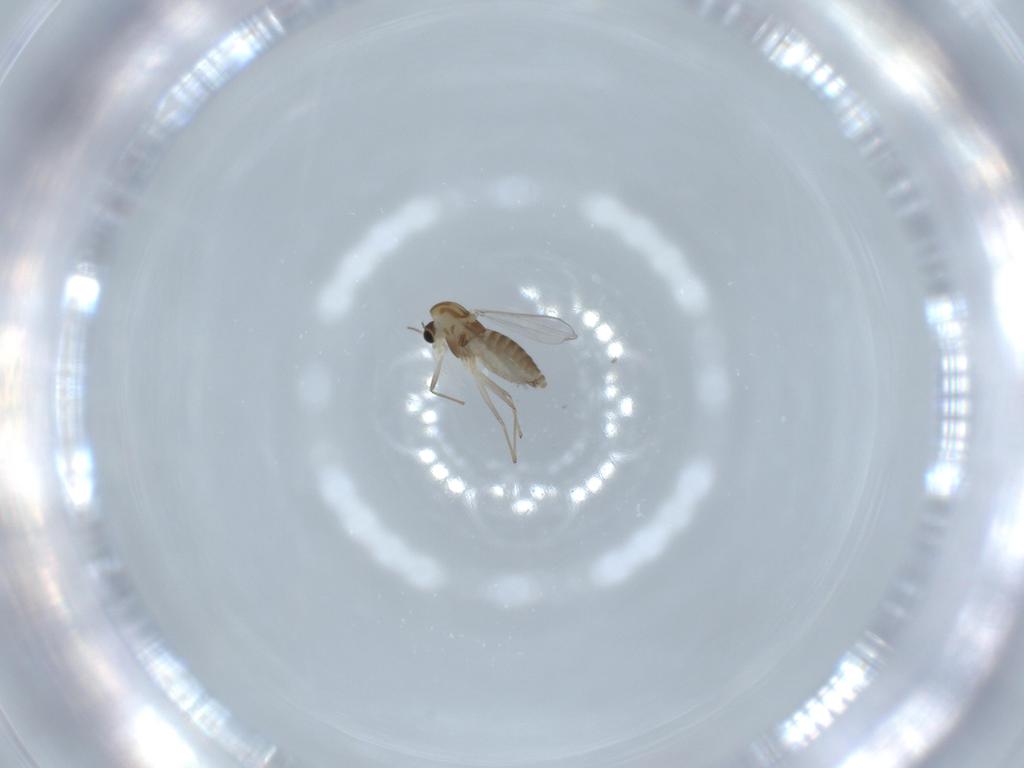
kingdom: Animalia
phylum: Arthropoda
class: Insecta
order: Diptera
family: Chironomidae
